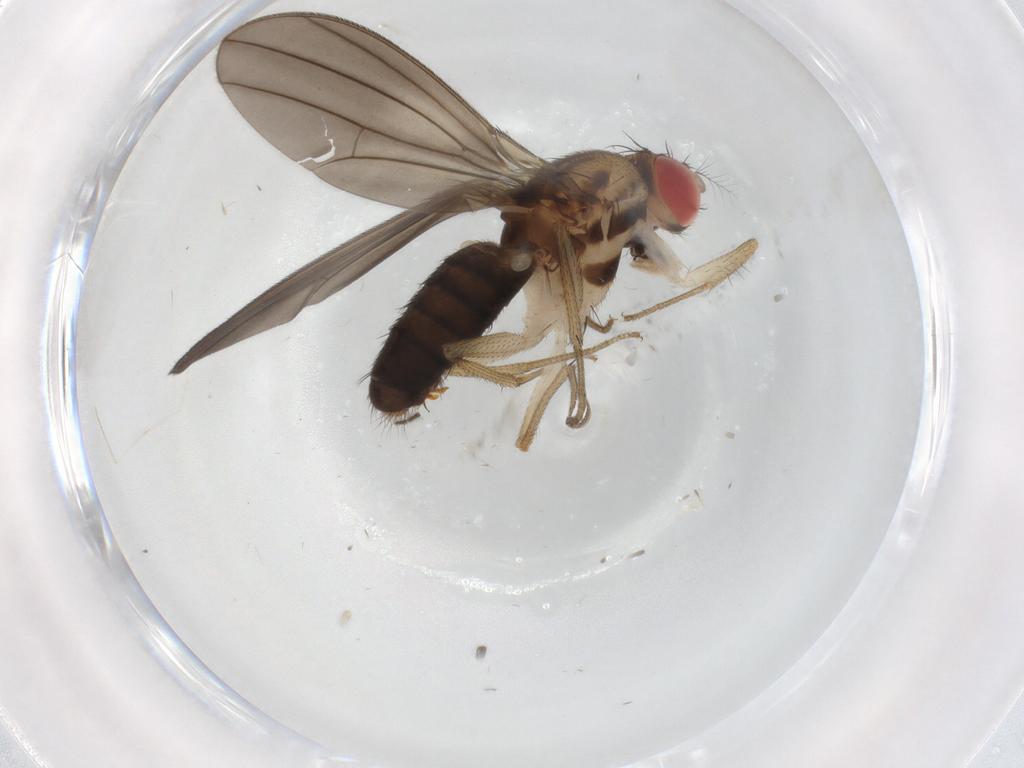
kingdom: Animalia
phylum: Arthropoda
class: Insecta
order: Diptera
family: Drosophilidae
